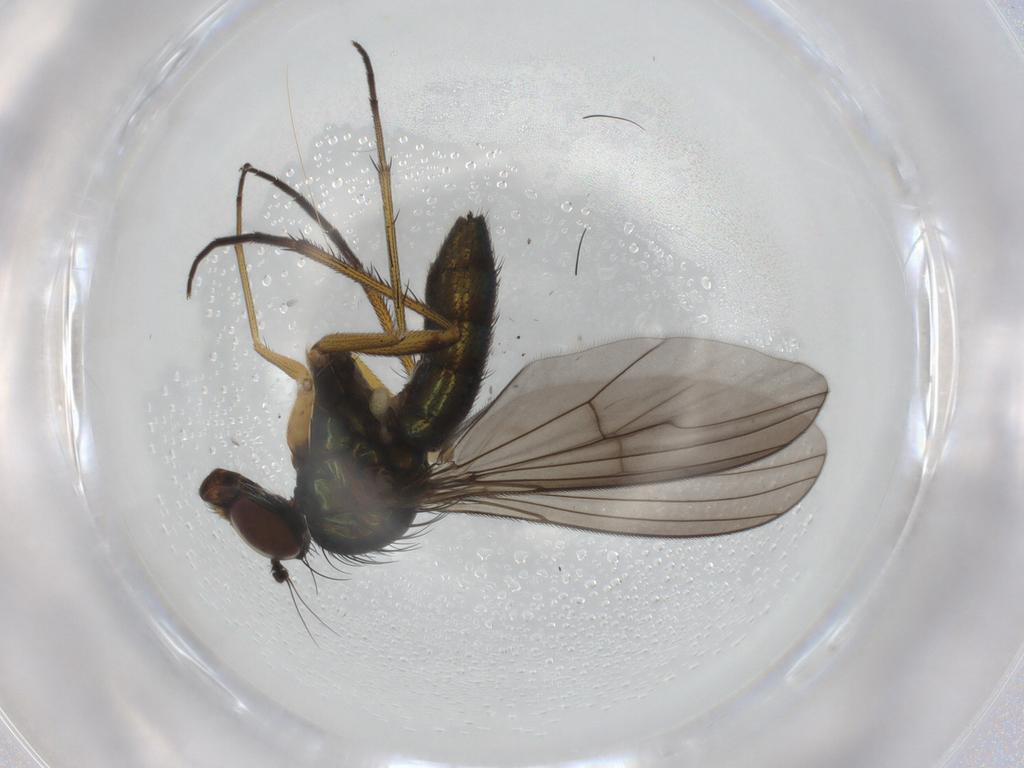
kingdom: Animalia
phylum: Arthropoda
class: Insecta
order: Diptera
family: Dolichopodidae
